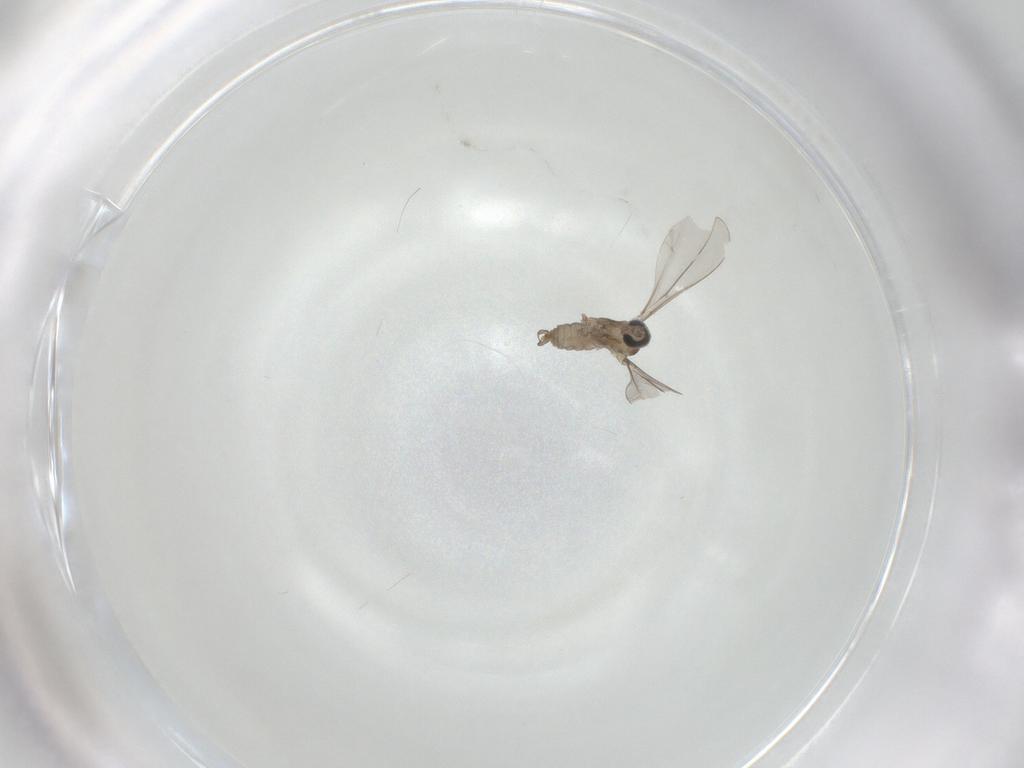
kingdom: Animalia
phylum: Arthropoda
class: Insecta
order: Diptera
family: Cecidomyiidae
